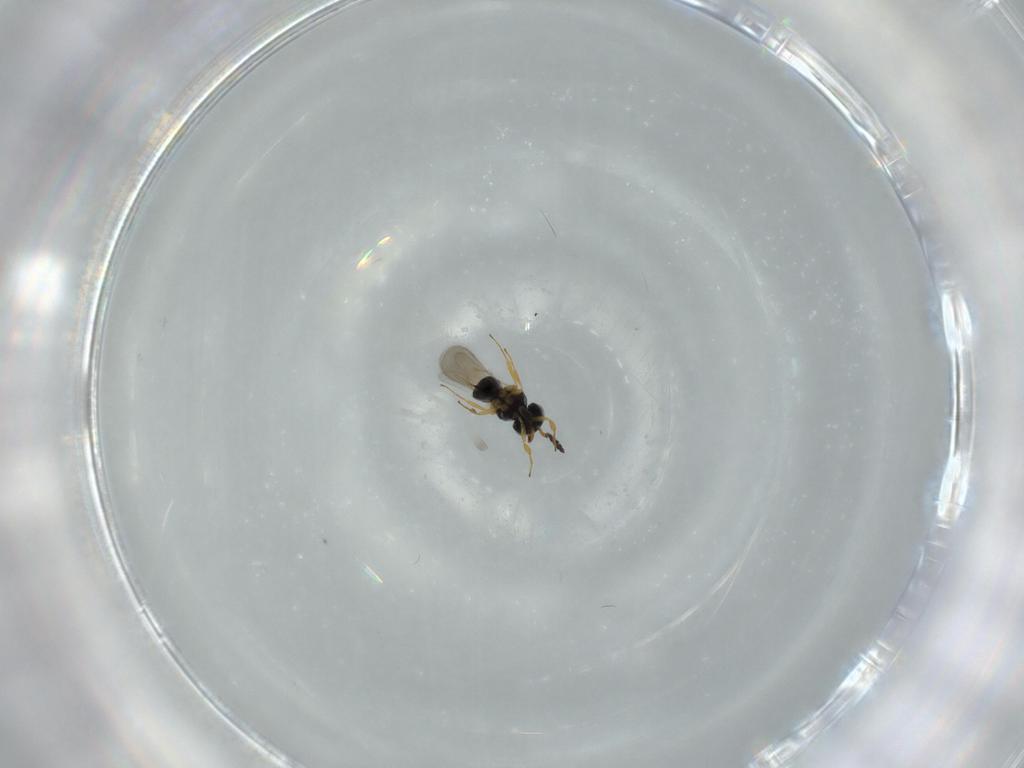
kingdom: Animalia
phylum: Arthropoda
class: Insecta
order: Hymenoptera
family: Scelionidae
